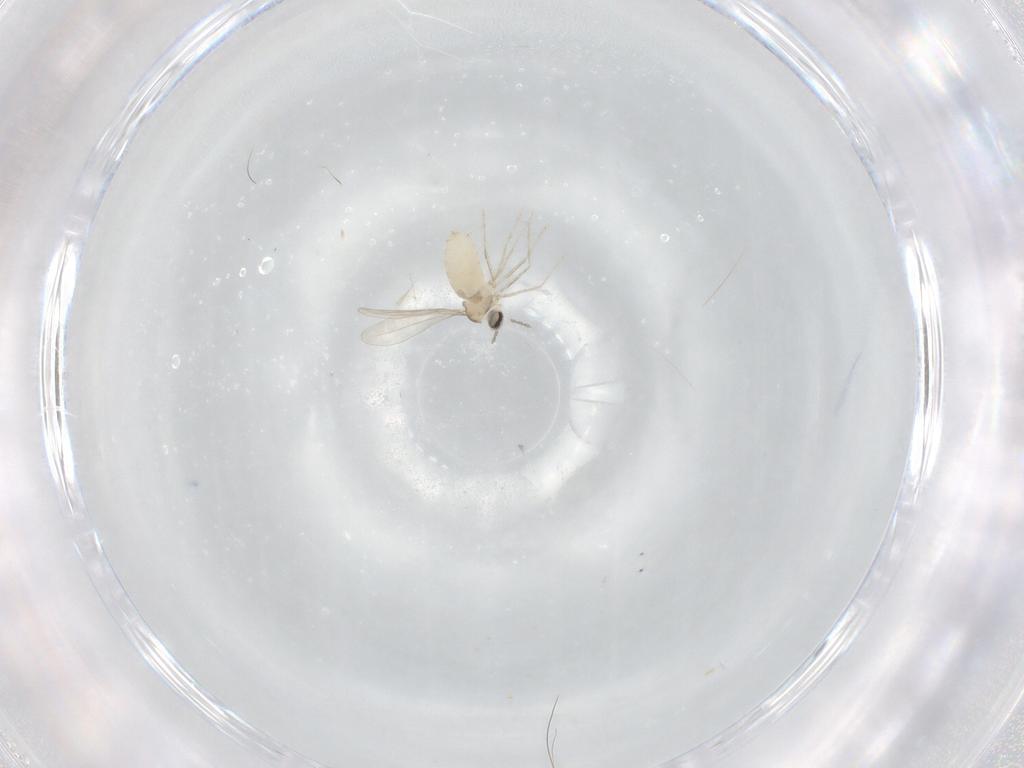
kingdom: Animalia
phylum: Arthropoda
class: Insecta
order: Diptera
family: Cecidomyiidae
